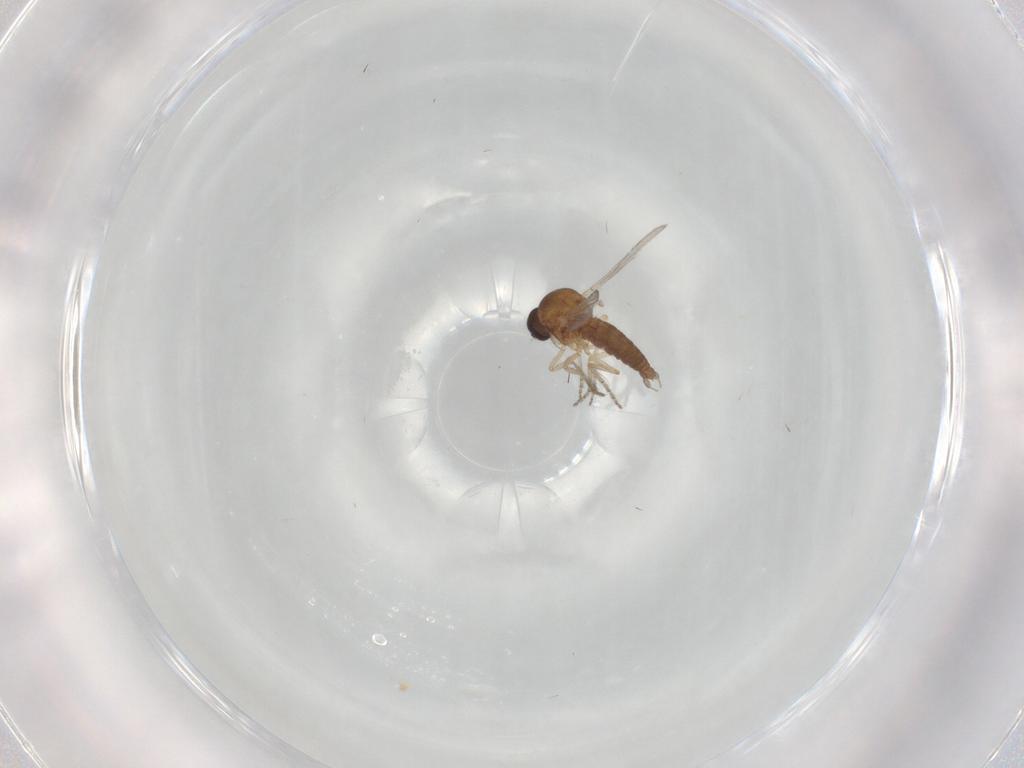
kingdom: Animalia
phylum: Arthropoda
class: Insecta
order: Diptera
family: Ceratopogonidae
